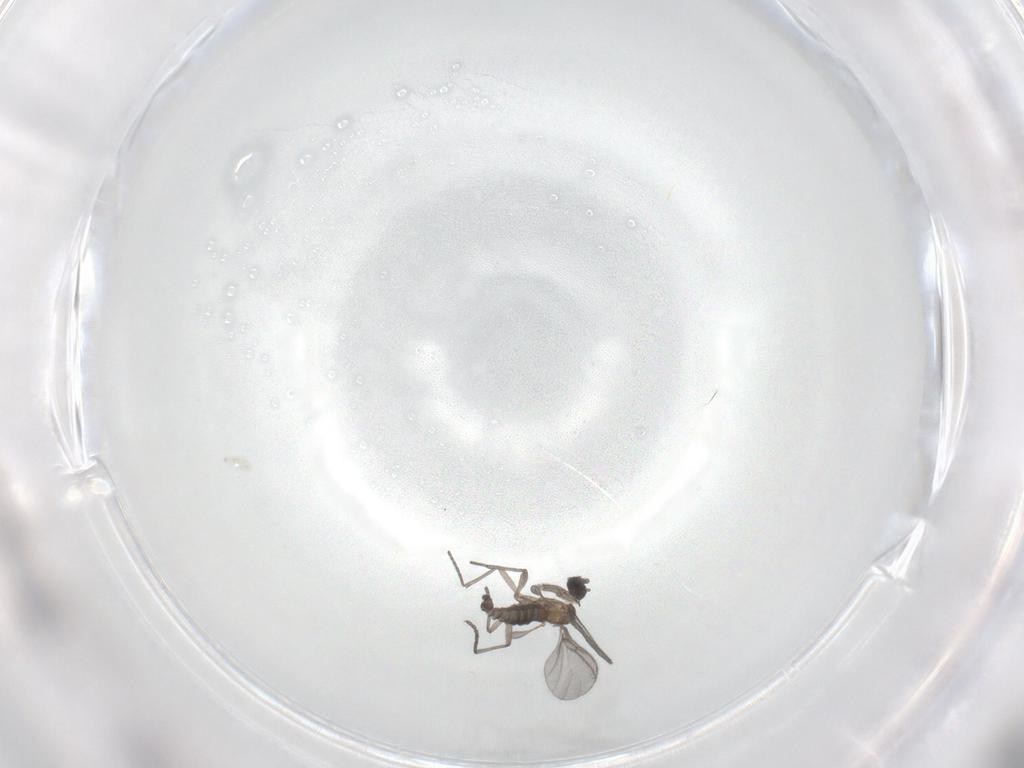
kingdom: Animalia
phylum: Arthropoda
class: Insecta
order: Diptera
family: Sciaridae
